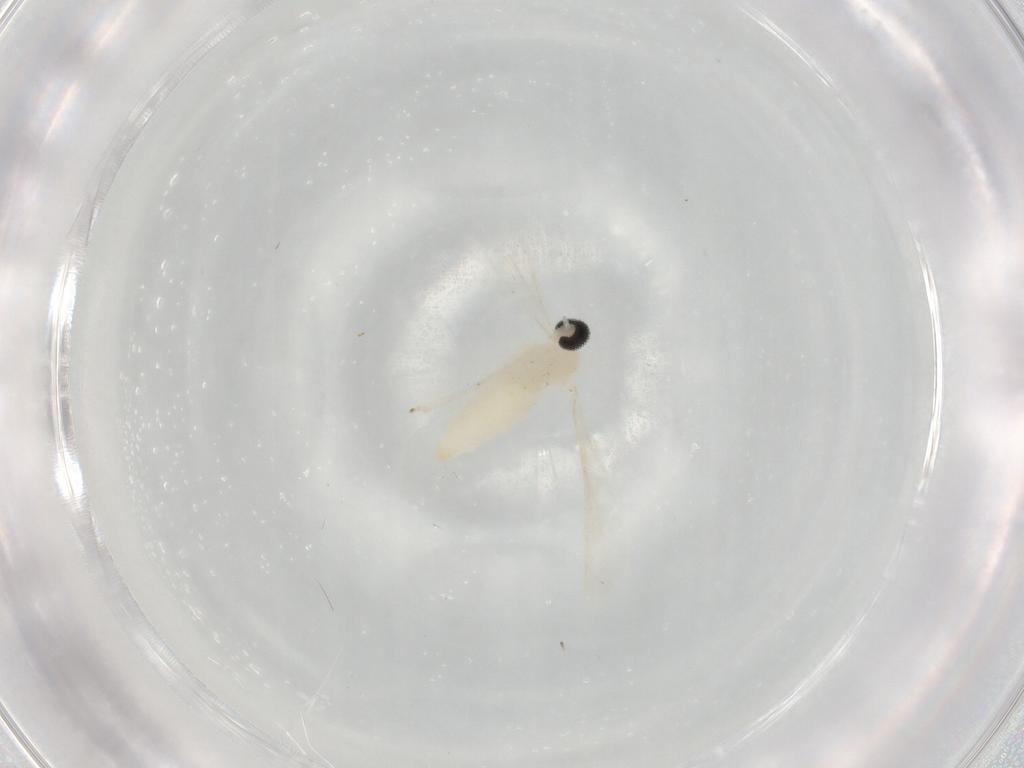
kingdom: Animalia
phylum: Arthropoda
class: Insecta
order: Diptera
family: Cecidomyiidae
